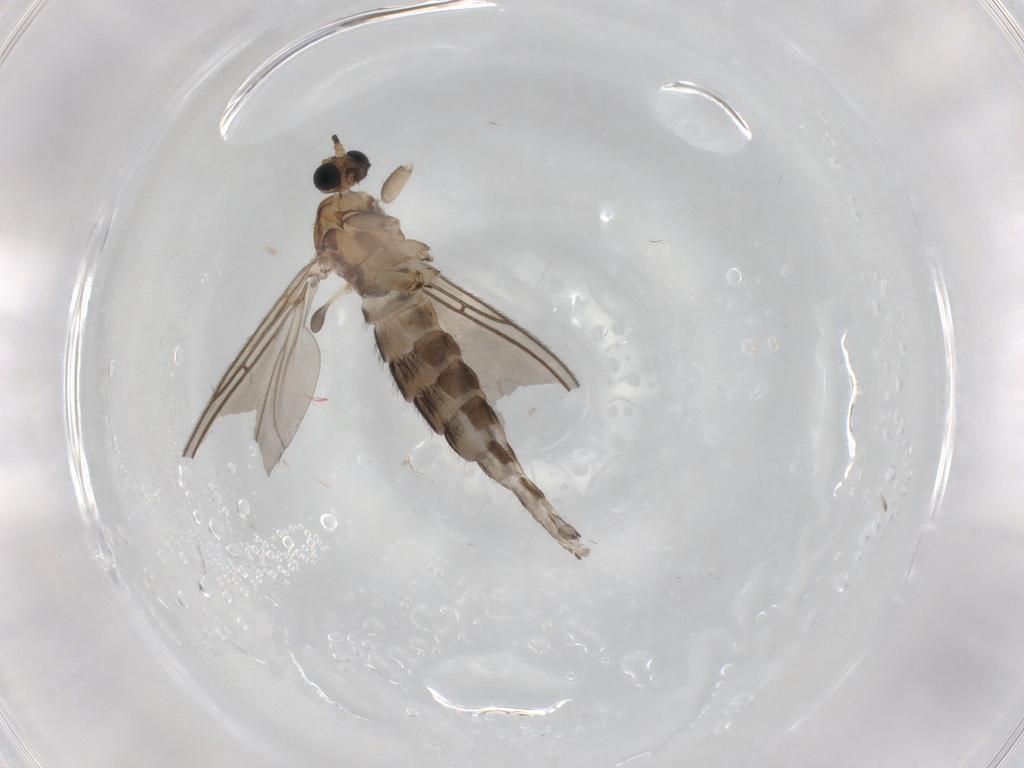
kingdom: Animalia
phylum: Arthropoda
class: Insecta
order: Diptera
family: Sciaridae
